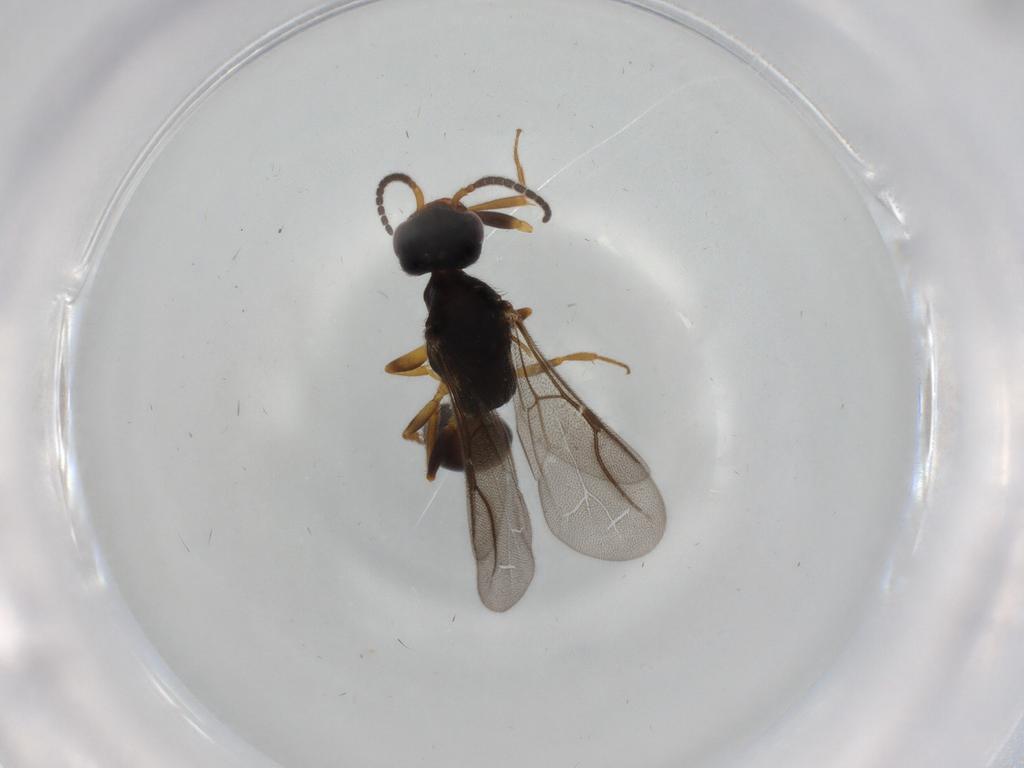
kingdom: Animalia
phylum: Arthropoda
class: Insecta
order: Hymenoptera
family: Bethylidae
